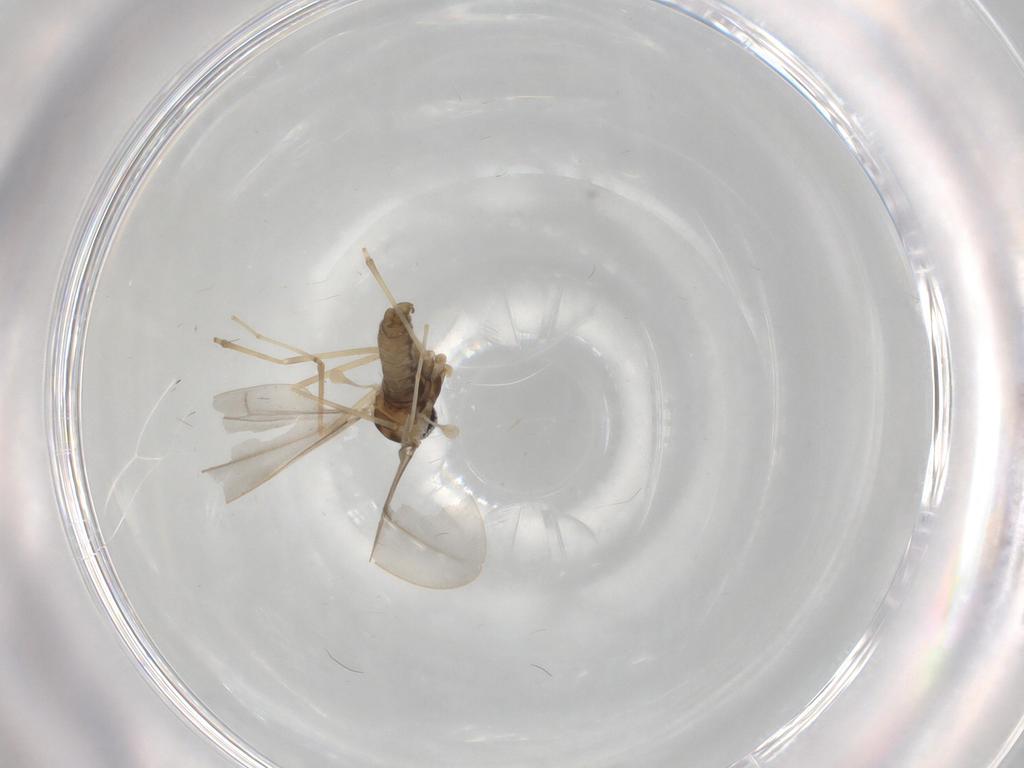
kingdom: Animalia
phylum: Arthropoda
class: Insecta
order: Diptera
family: Cecidomyiidae
